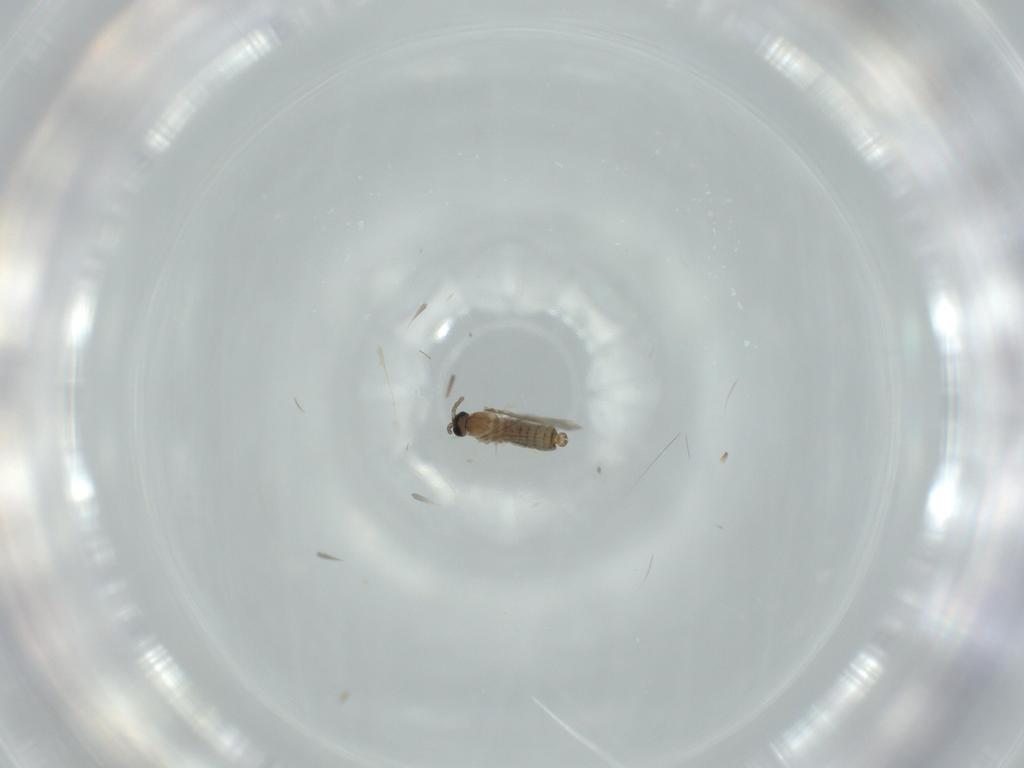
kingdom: Animalia
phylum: Arthropoda
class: Insecta
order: Diptera
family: Cecidomyiidae
